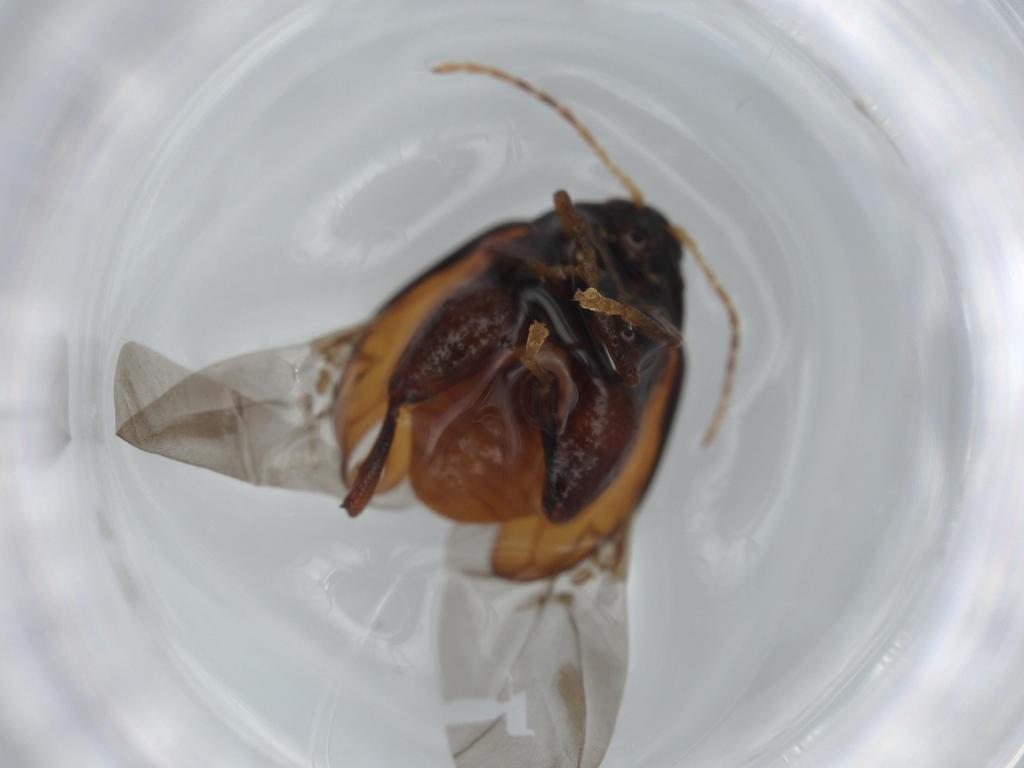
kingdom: Animalia
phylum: Arthropoda
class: Insecta
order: Coleoptera
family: Chrysomelidae
